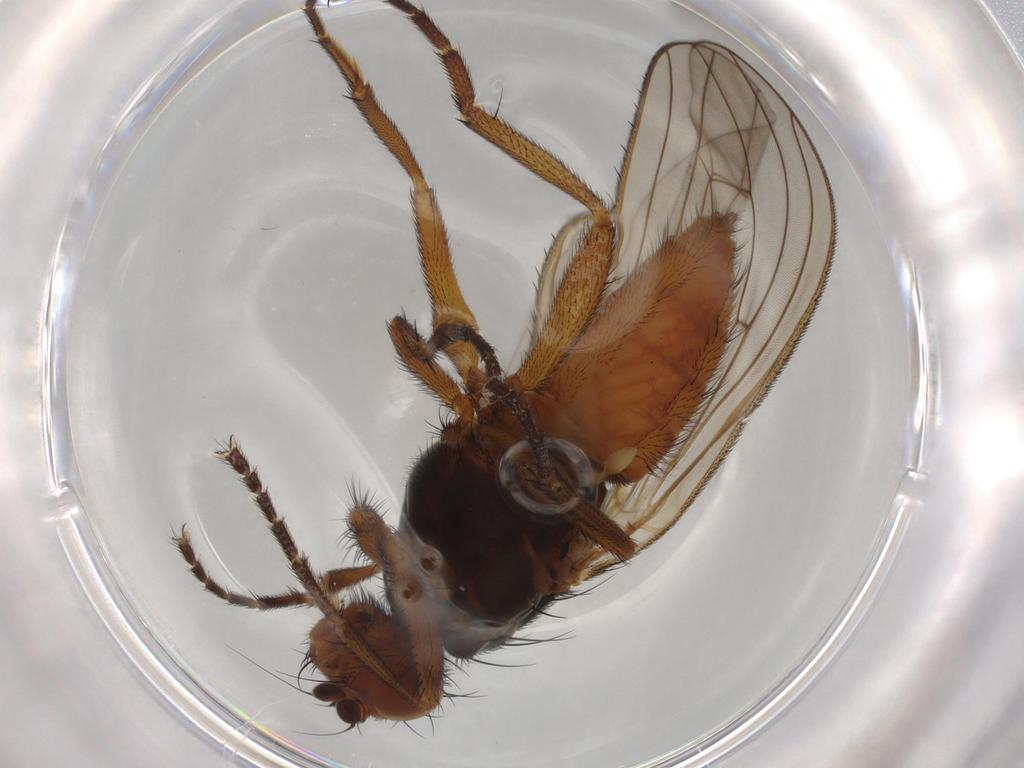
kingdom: Animalia
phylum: Arthropoda
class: Insecta
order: Diptera
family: Heleomyzidae
